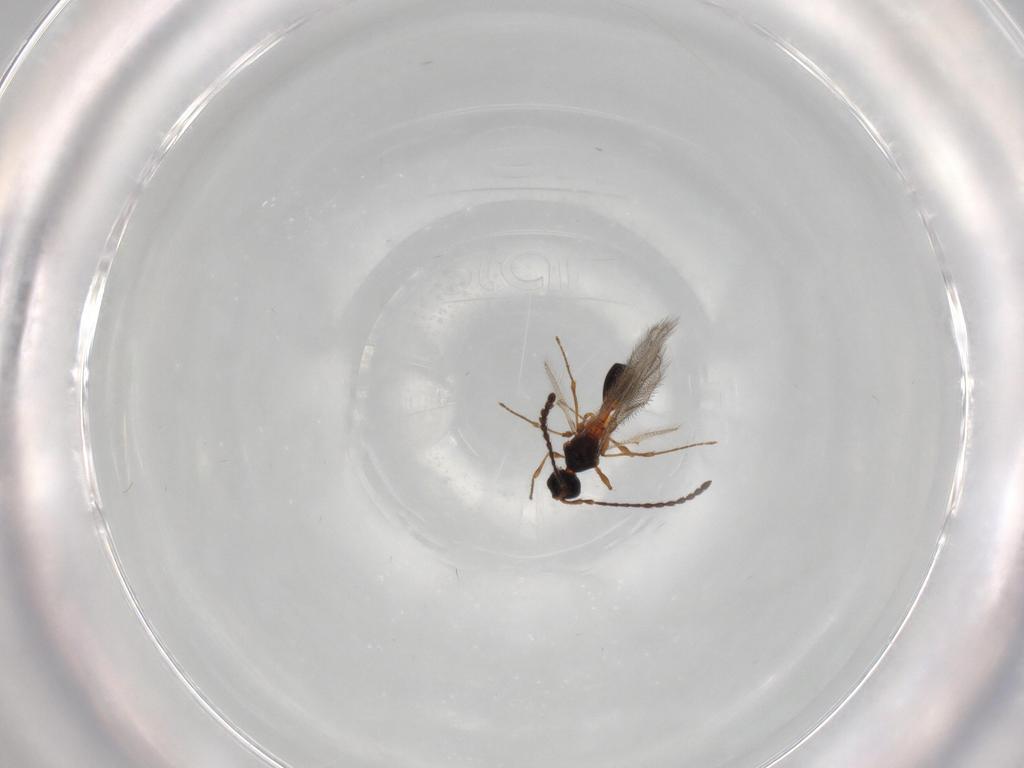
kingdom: Animalia
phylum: Arthropoda
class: Insecta
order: Hymenoptera
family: Diapriidae
